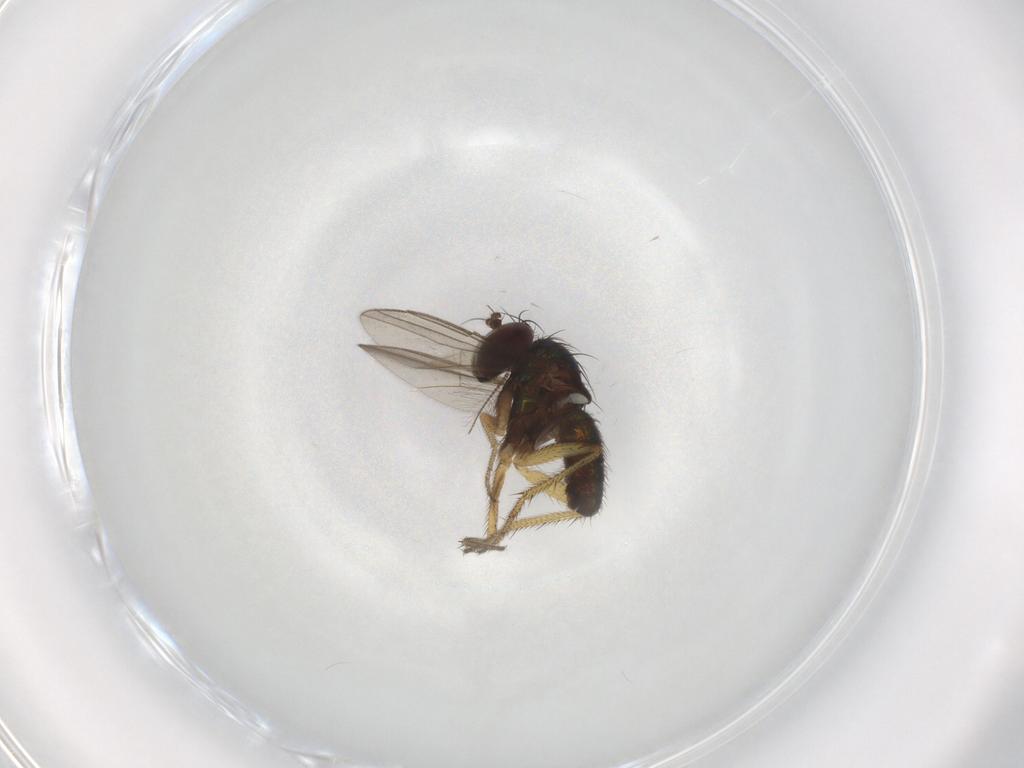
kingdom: Animalia
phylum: Arthropoda
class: Insecta
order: Diptera
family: Chironomidae
